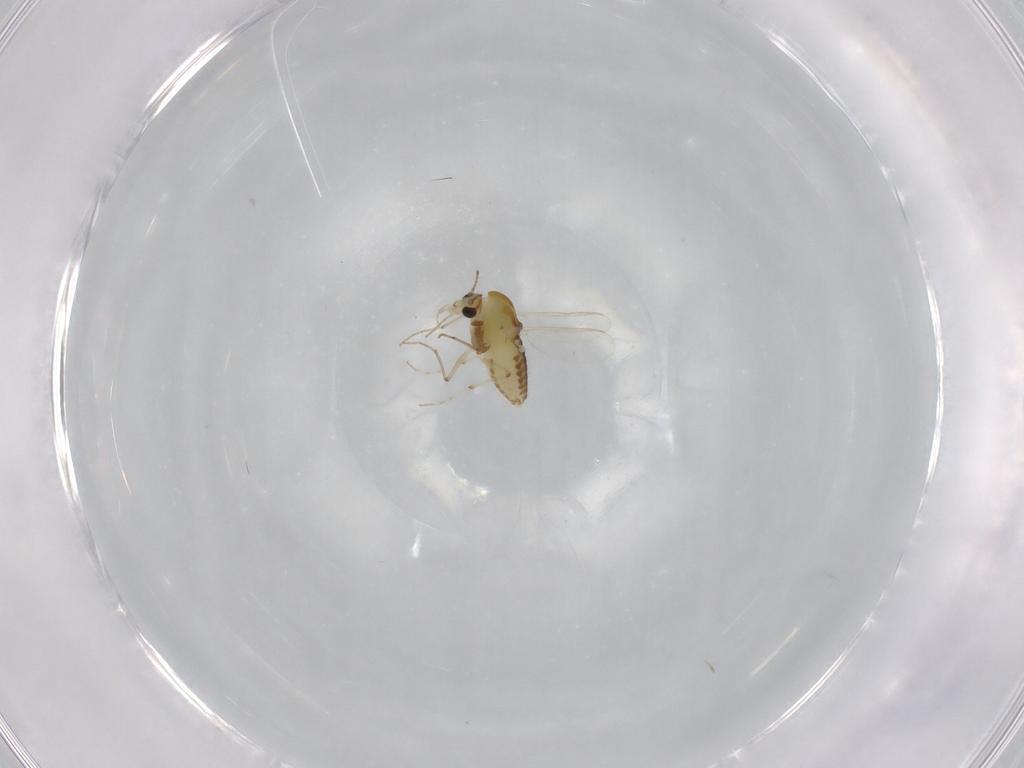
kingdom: Animalia
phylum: Arthropoda
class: Insecta
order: Diptera
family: Chironomidae
